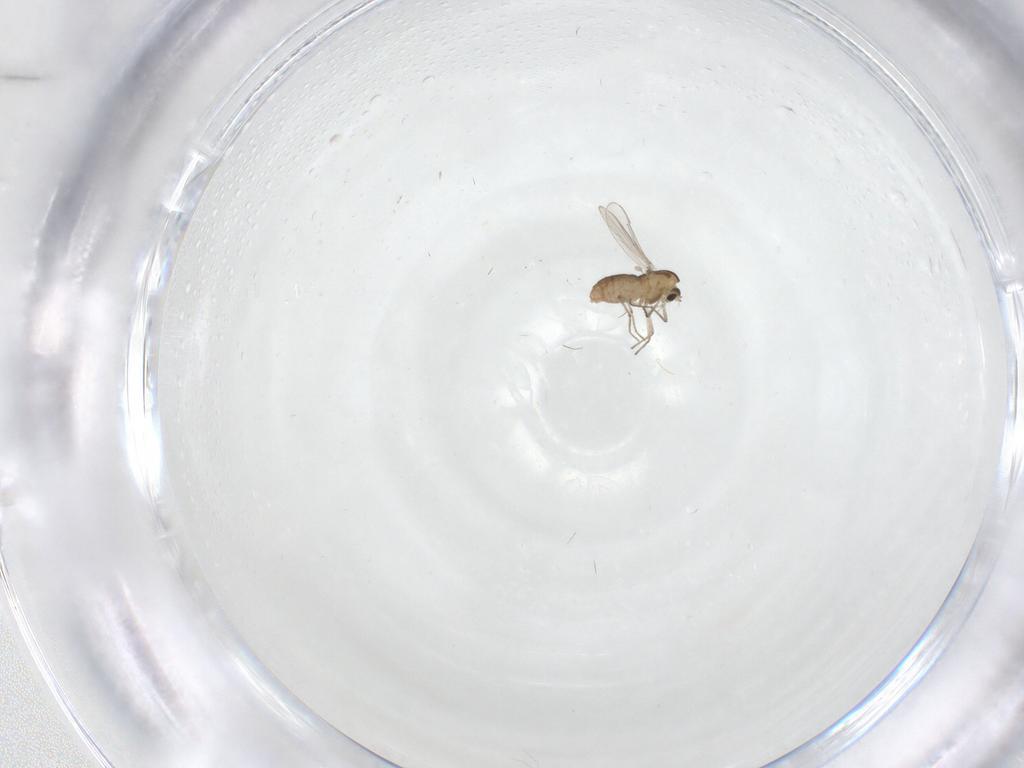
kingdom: Animalia
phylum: Arthropoda
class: Insecta
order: Diptera
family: Chironomidae
